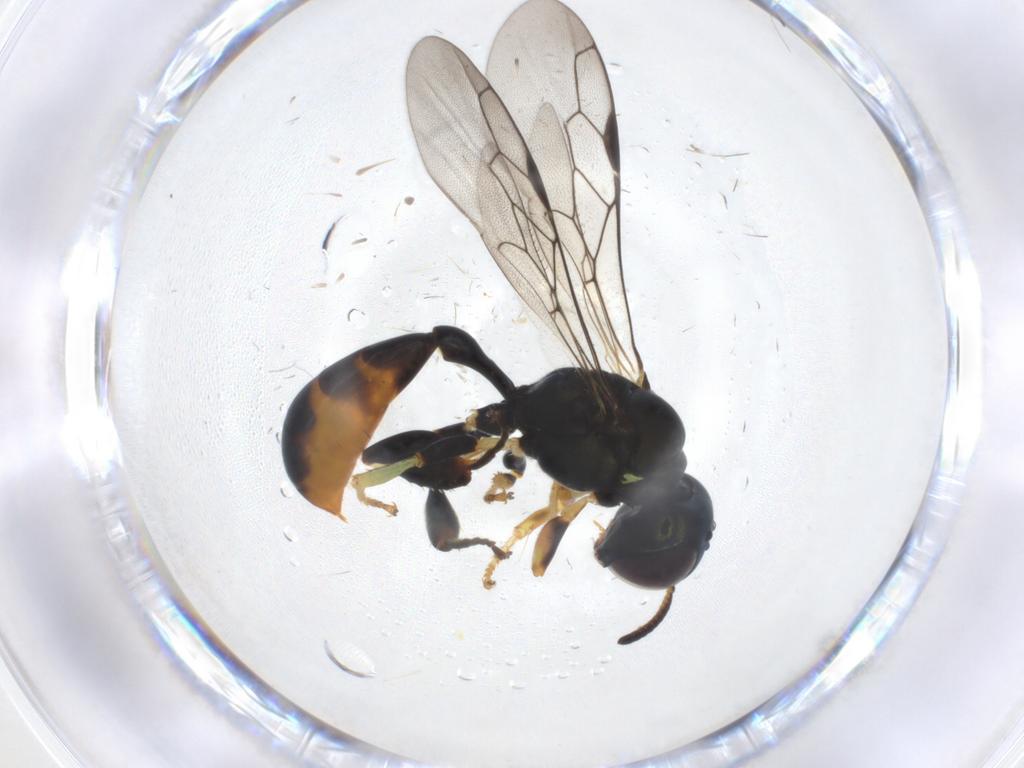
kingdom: Animalia
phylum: Arthropoda
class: Insecta
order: Hymenoptera
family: Crabronidae
